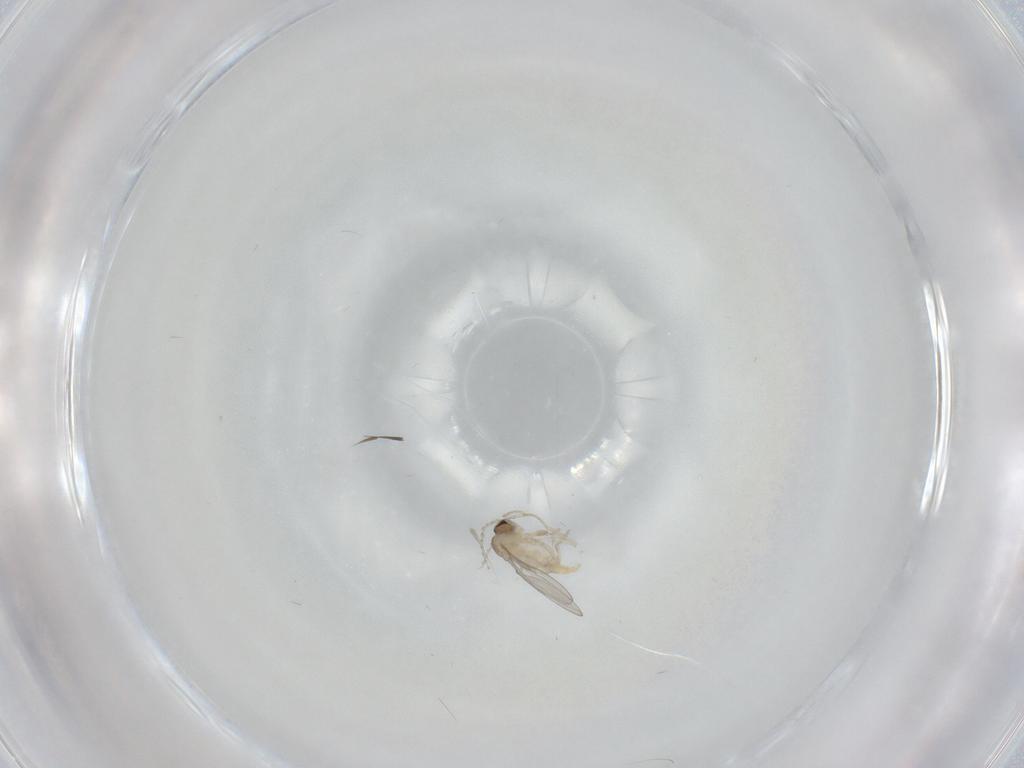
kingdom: Animalia
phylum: Arthropoda
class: Insecta
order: Diptera
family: Cecidomyiidae
